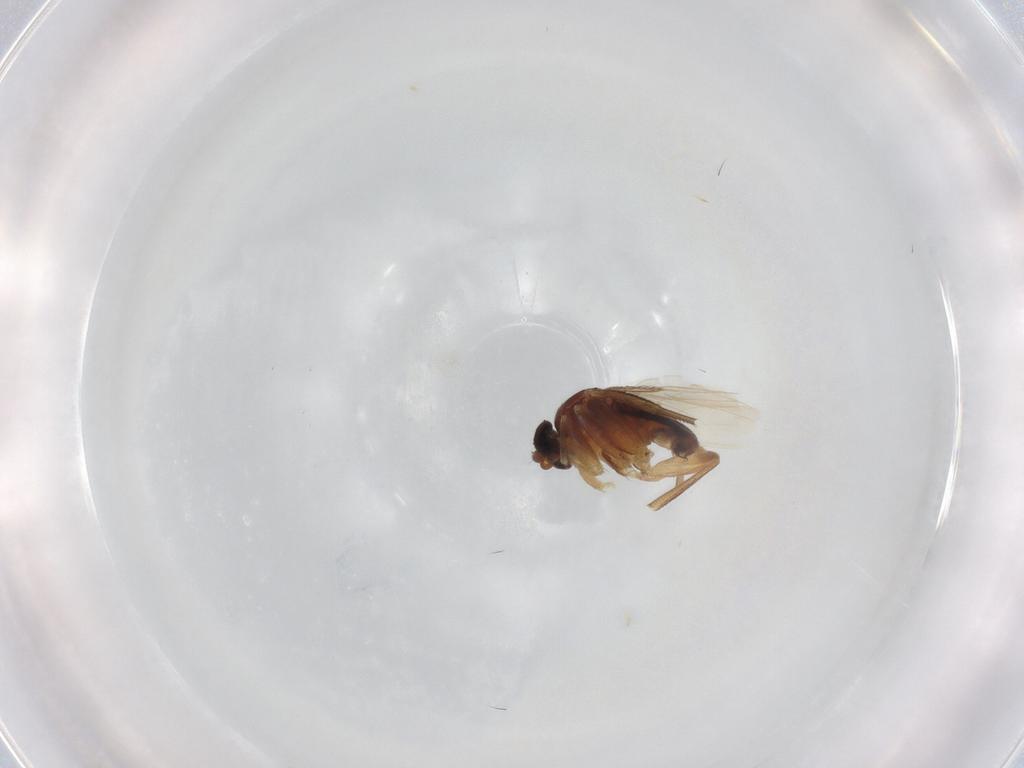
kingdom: Animalia
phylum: Arthropoda
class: Insecta
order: Diptera
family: Phoridae
